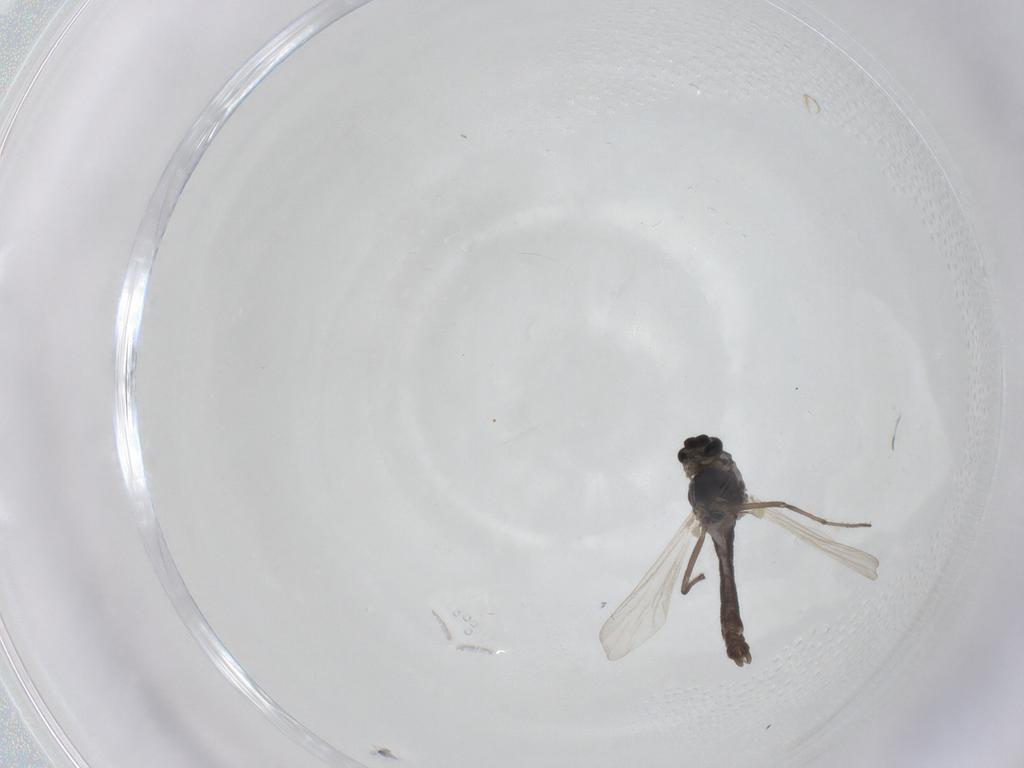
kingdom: Animalia
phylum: Arthropoda
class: Insecta
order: Diptera
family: Chironomidae
